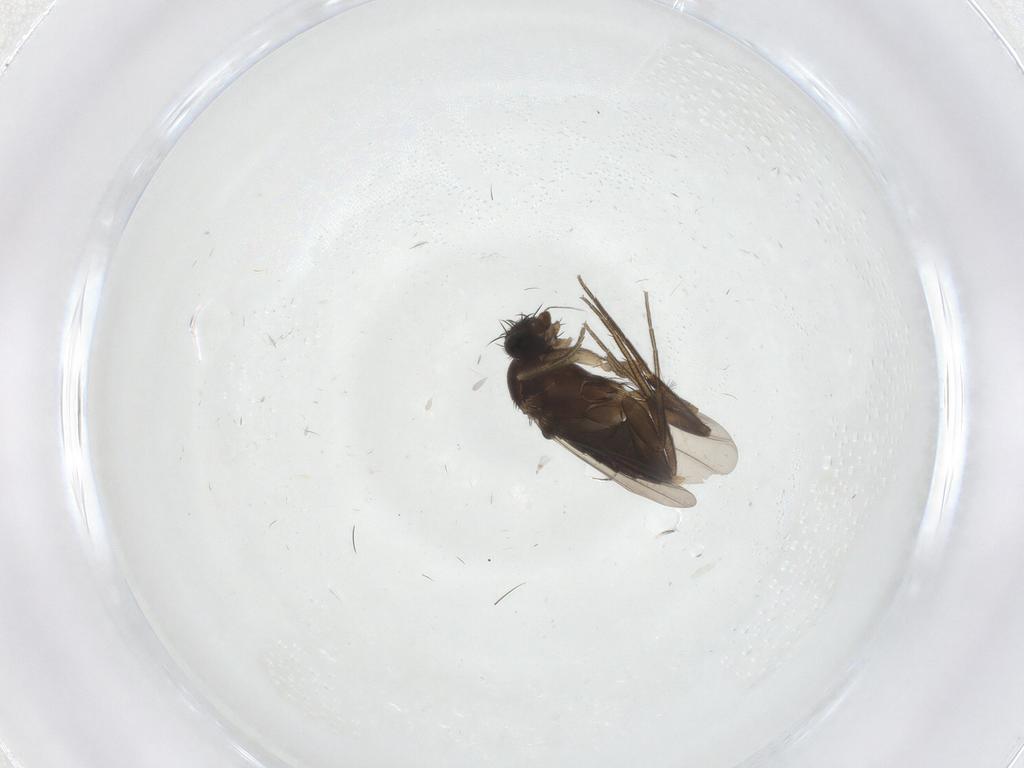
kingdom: Animalia
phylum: Arthropoda
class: Insecta
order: Diptera
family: Phoridae
